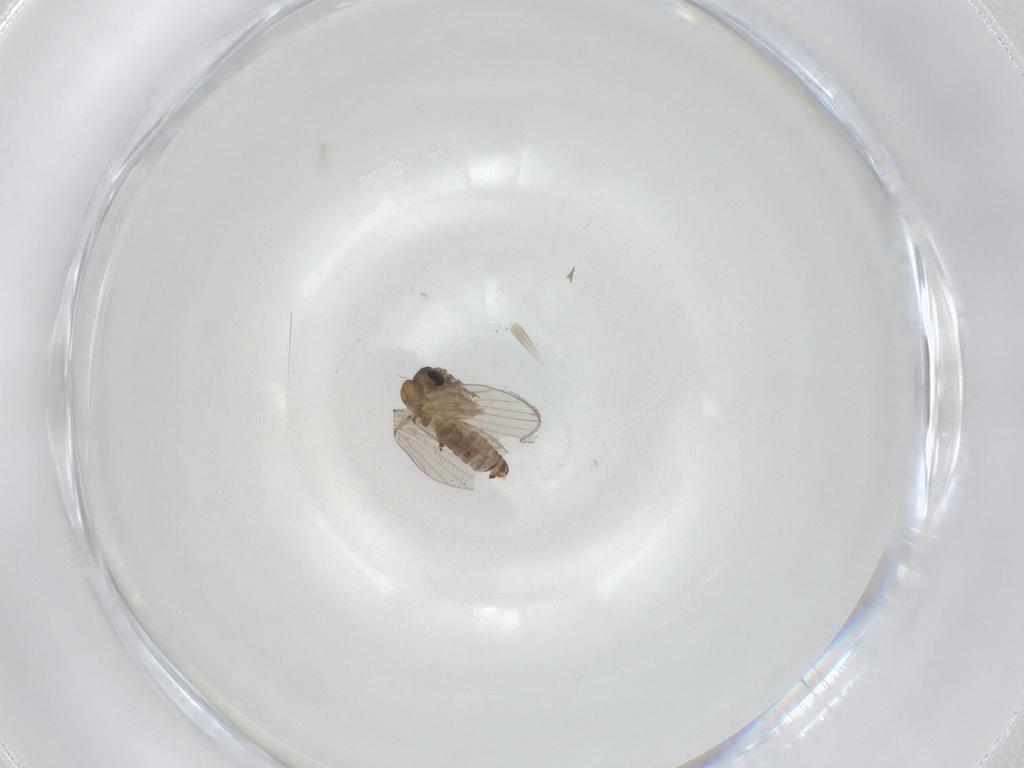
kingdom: Animalia
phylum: Arthropoda
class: Insecta
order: Diptera
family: Psychodidae
